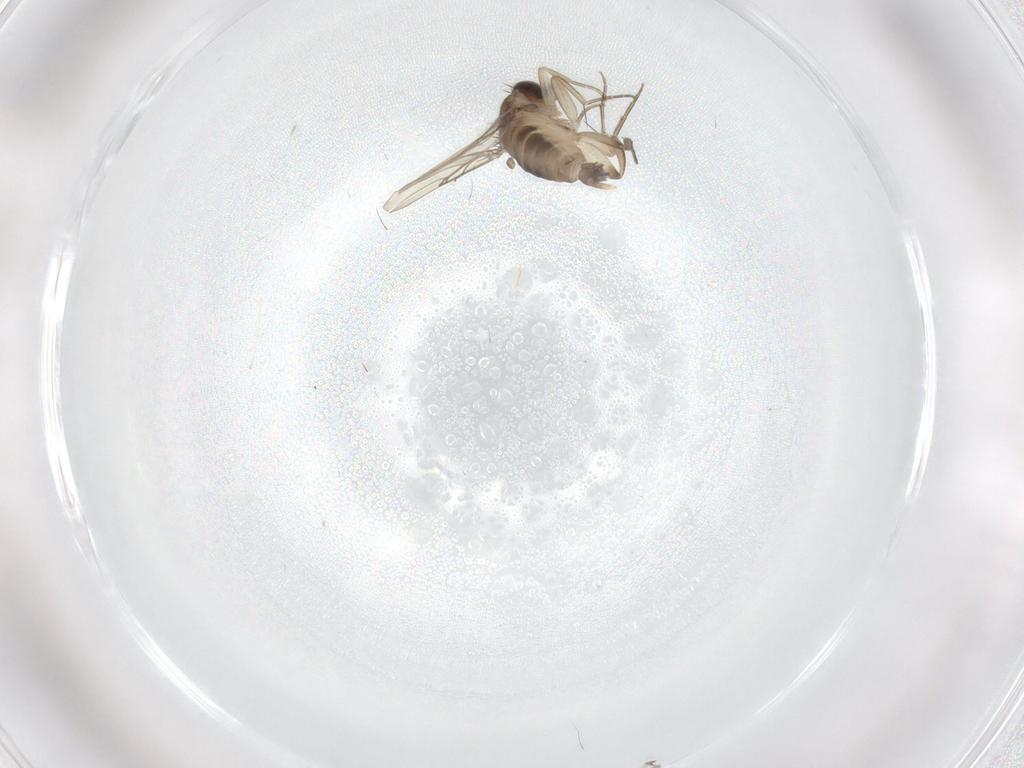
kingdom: Animalia
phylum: Arthropoda
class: Insecta
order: Diptera
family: Phoridae
